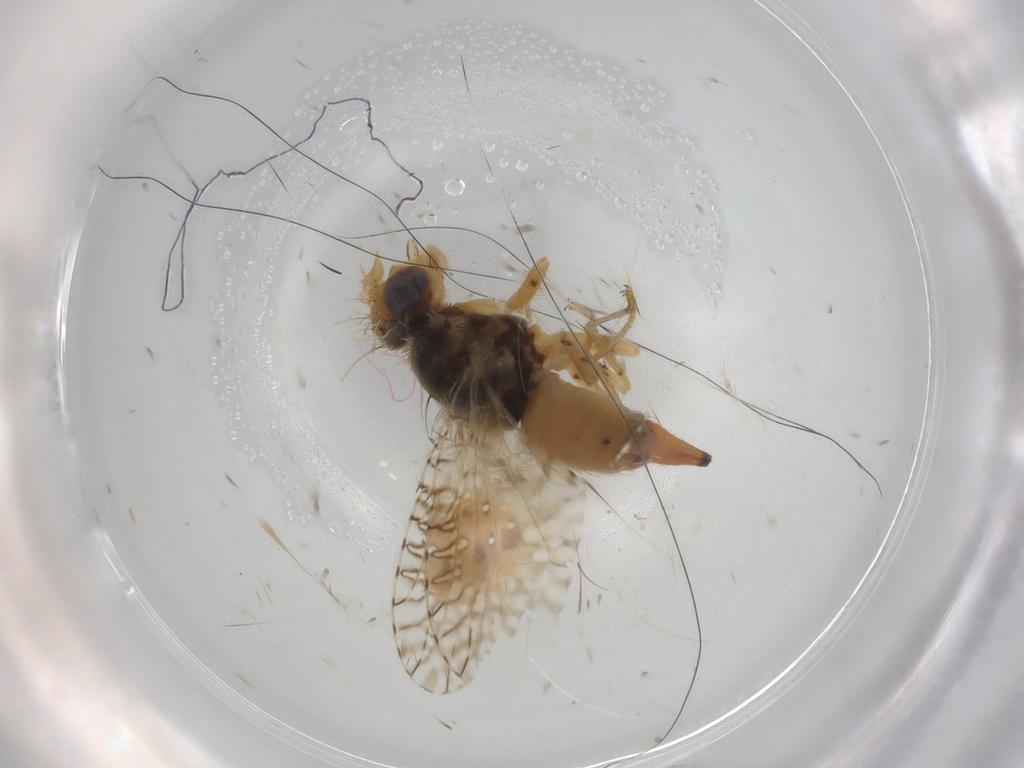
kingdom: Animalia
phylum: Arthropoda
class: Insecta
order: Diptera
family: Tephritidae
